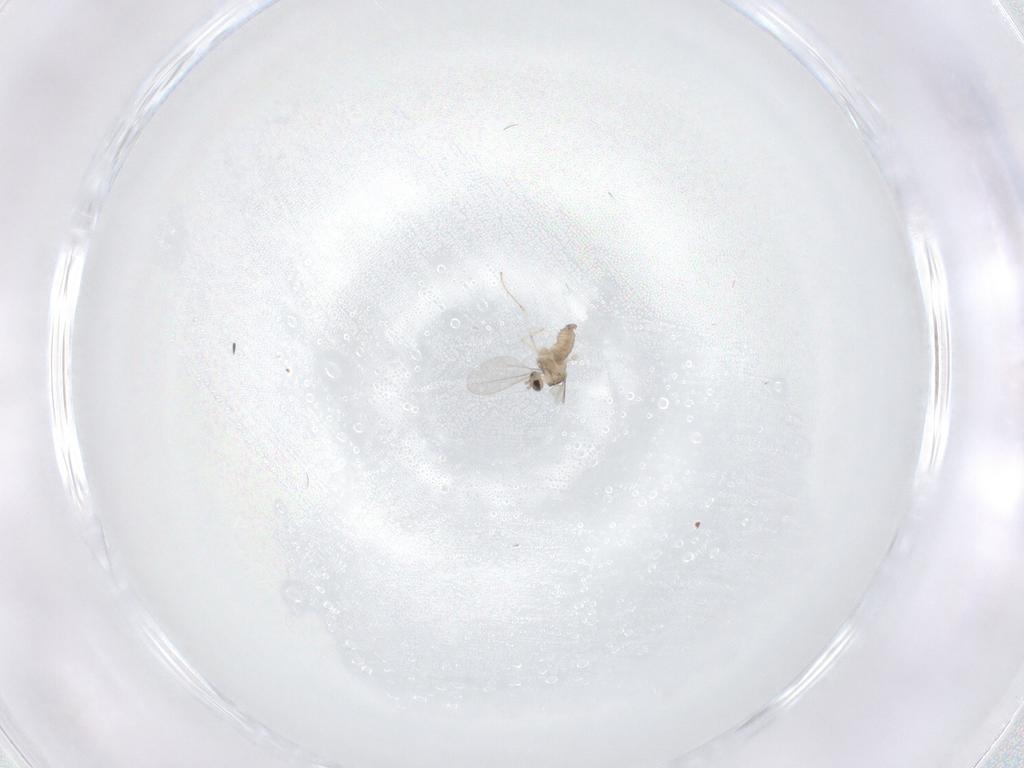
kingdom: Animalia
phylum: Arthropoda
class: Insecta
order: Diptera
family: Cecidomyiidae
